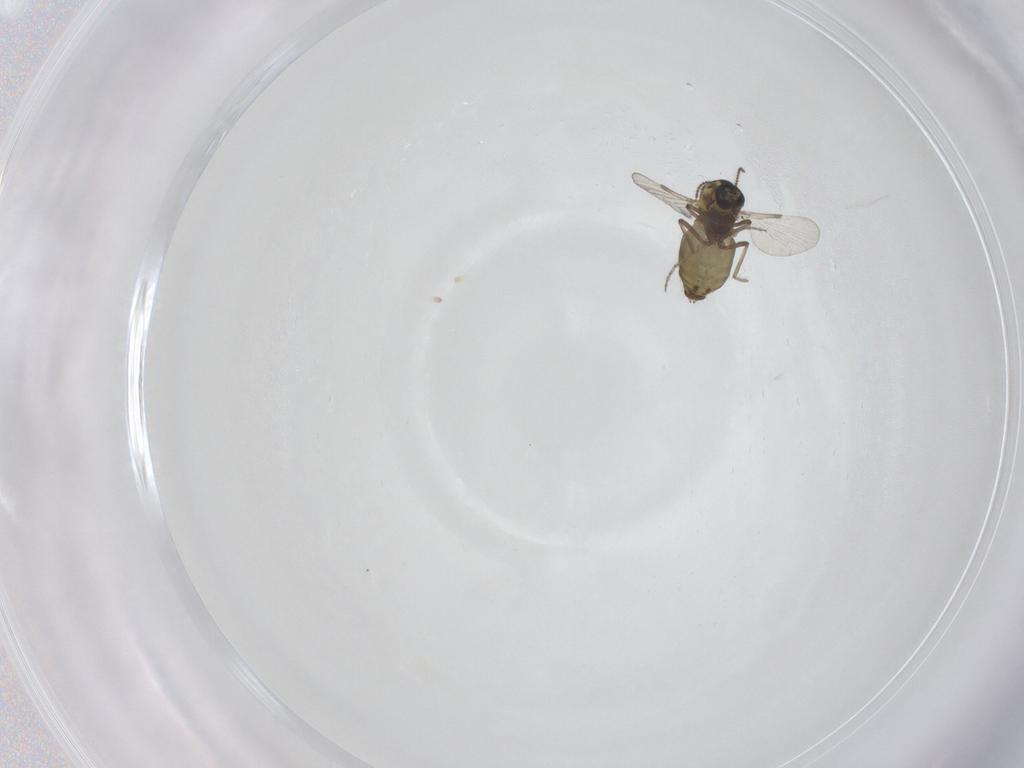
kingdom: Animalia
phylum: Arthropoda
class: Insecta
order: Diptera
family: Ceratopogonidae
